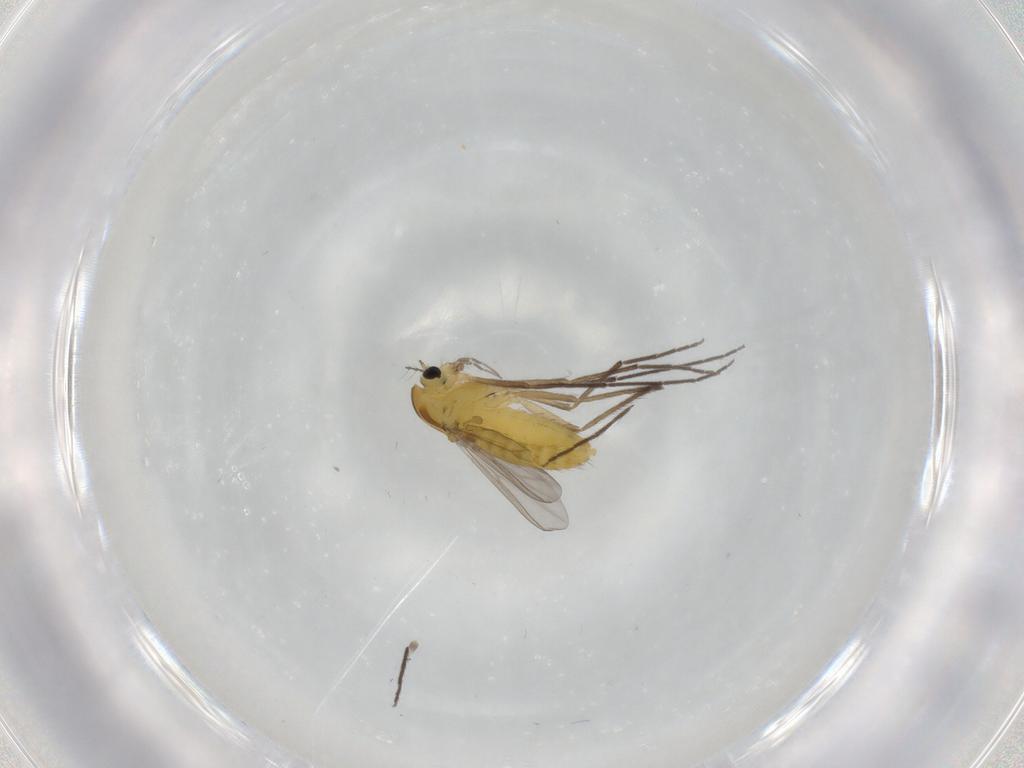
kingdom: Animalia
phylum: Arthropoda
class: Insecta
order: Diptera
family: Chironomidae
